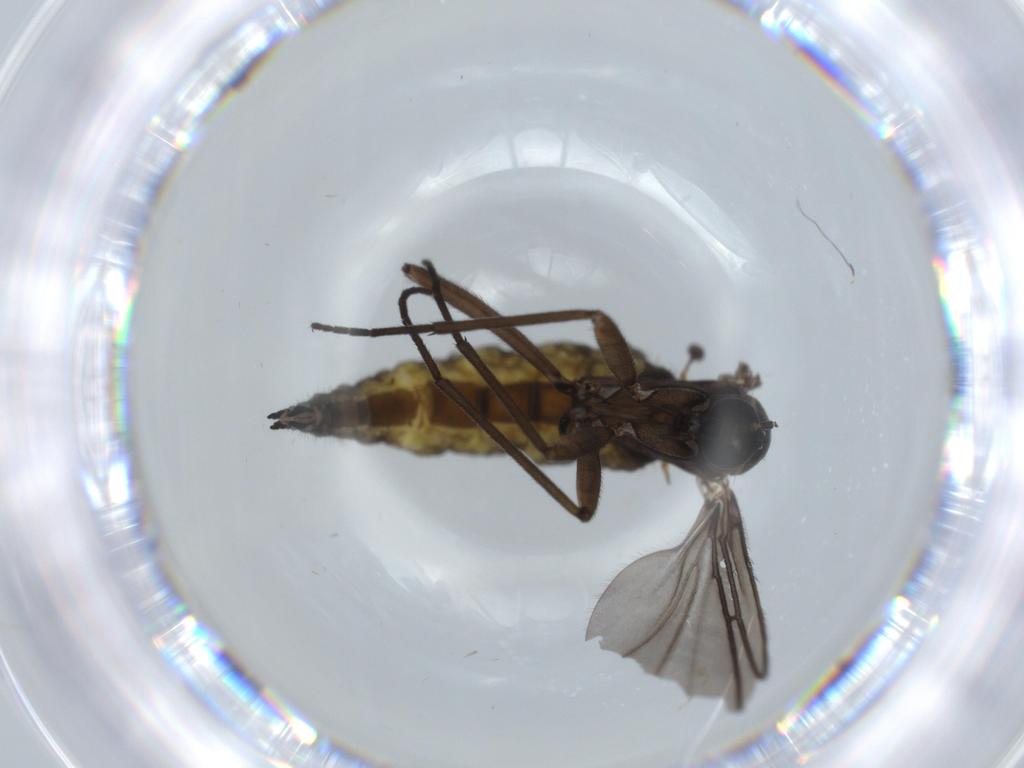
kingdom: Animalia
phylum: Arthropoda
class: Insecta
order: Diptera
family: Sciaridae
